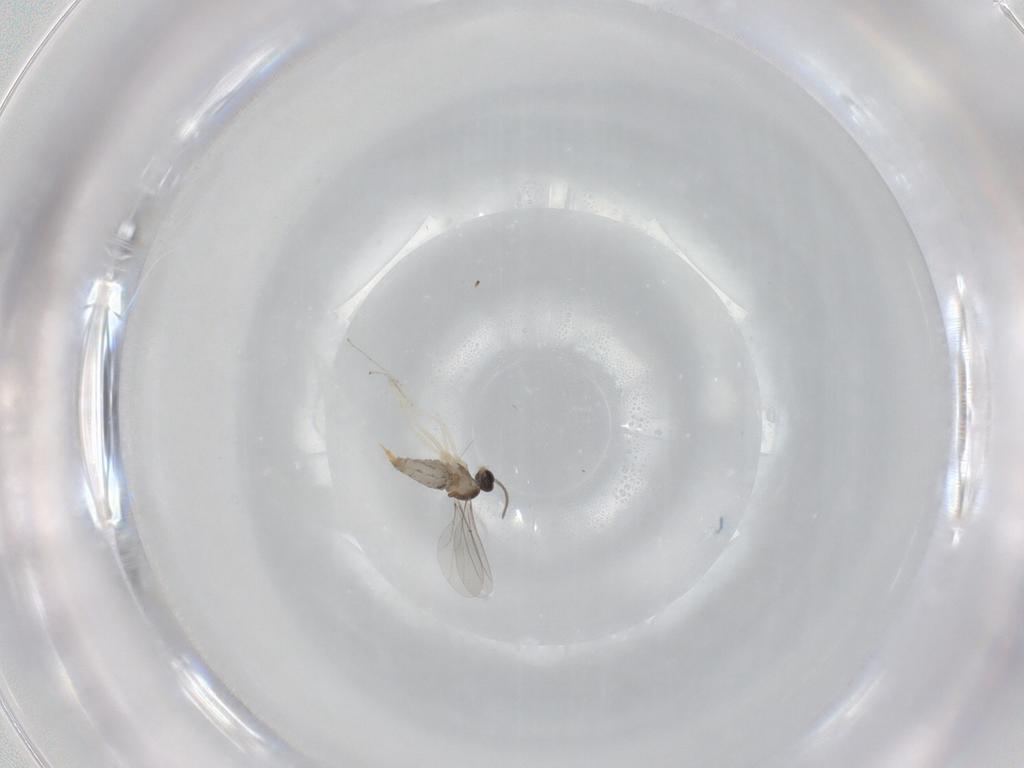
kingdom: Animalia
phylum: Arthropoda
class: Insecta
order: Diptera
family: Cecidomyiidae
